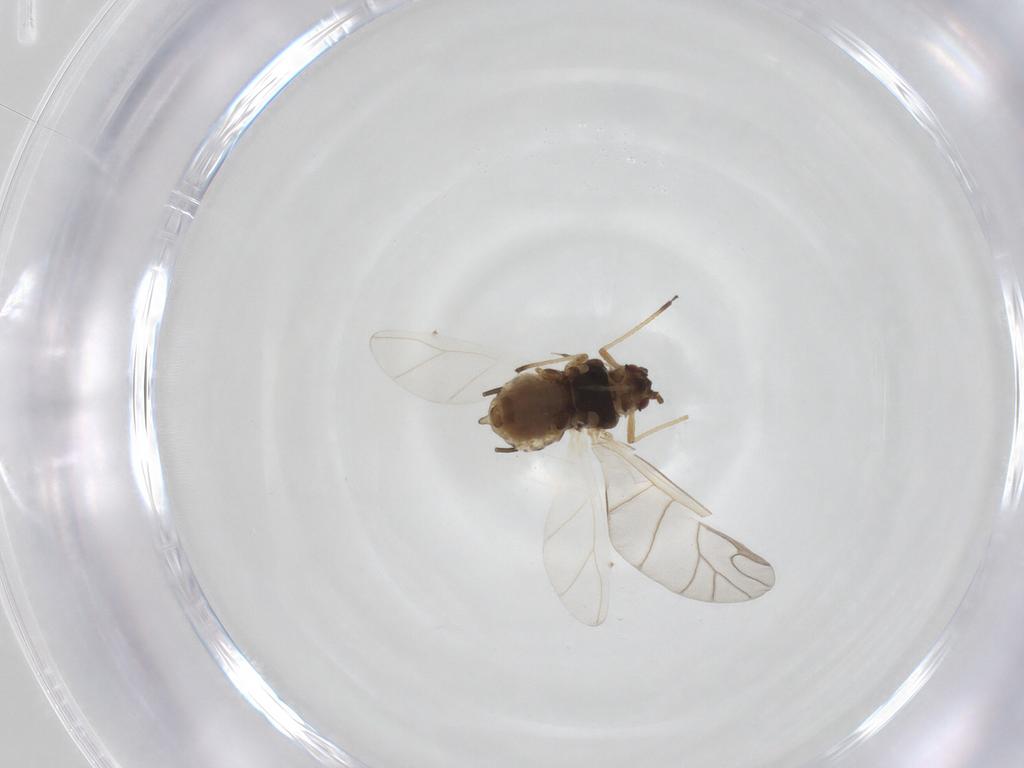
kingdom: Animalia
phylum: Arthropoda
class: Insecta
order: Hemiptera
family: Aphididae
